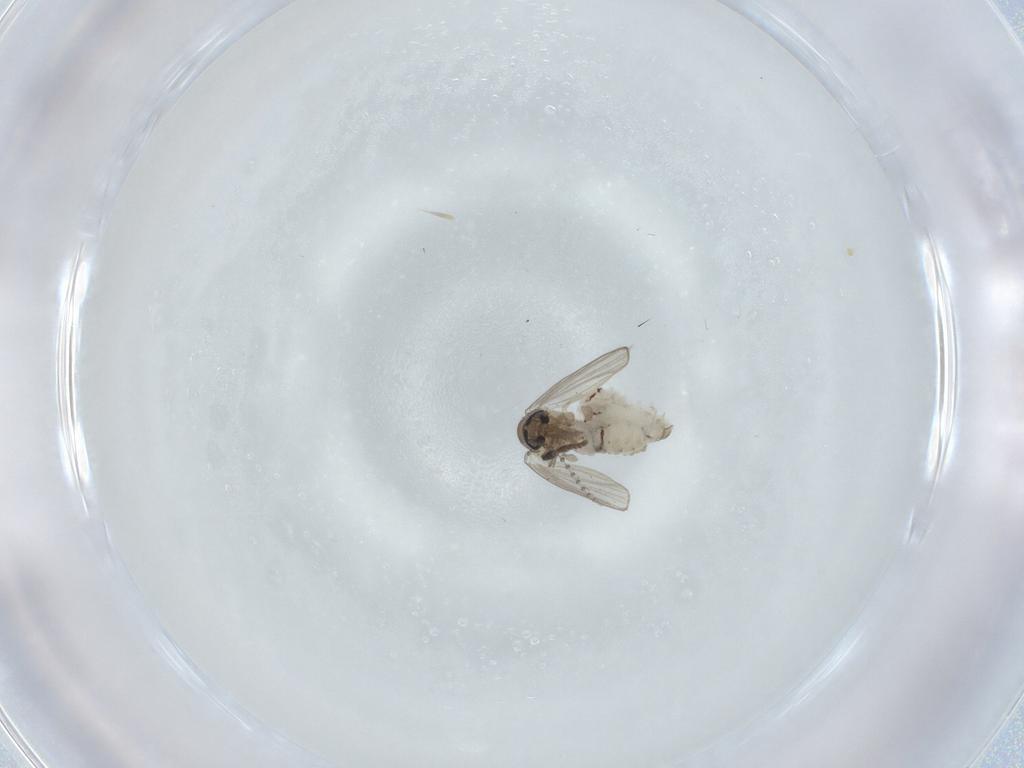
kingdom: Animalia
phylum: Arthropoda
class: Insecta
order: Diptera
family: Psychodidae
